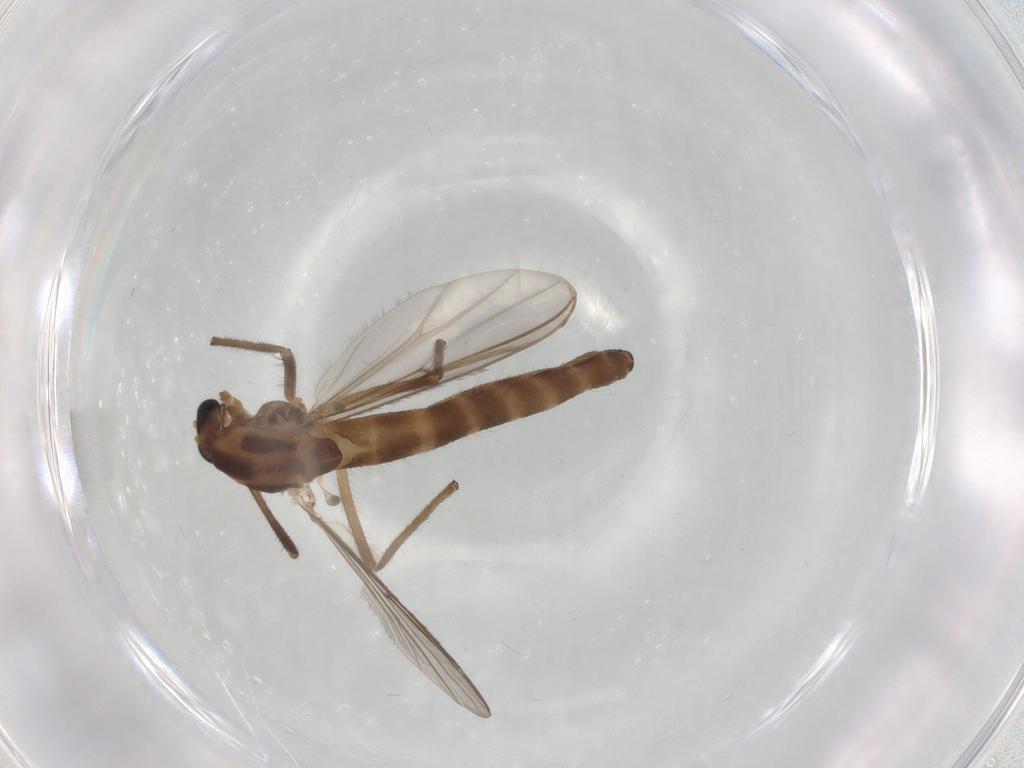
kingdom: Animalia
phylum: Arthropoda
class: Insecta
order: Diptera
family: Chironomidae
